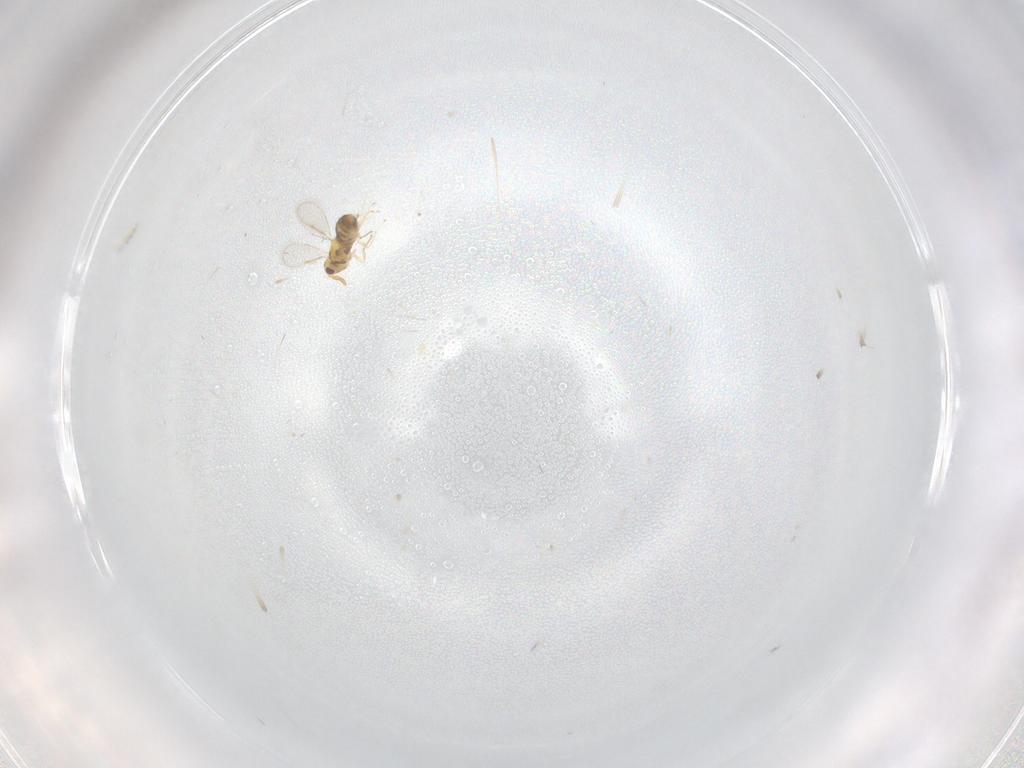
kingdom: Animalia
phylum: Arthropoda
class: Insecta
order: Hymenoptera
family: Aphelinidae
